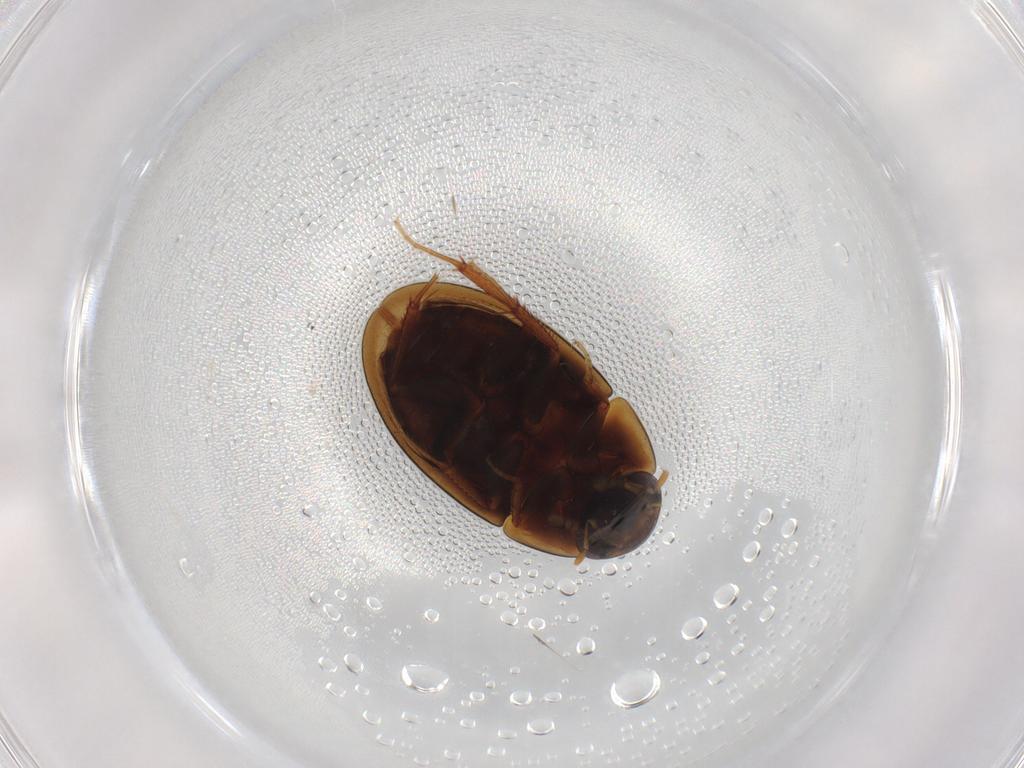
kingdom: Animalia
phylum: Arthropoda
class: Insecta
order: Coleoptera
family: Hydrophilidae
